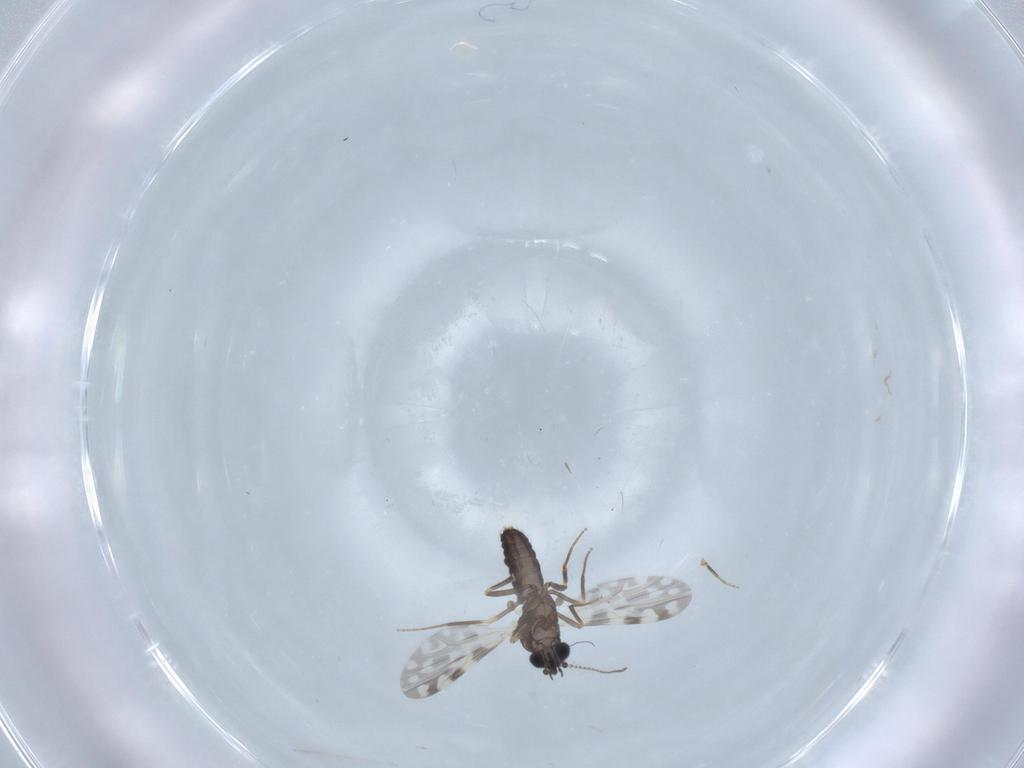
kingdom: Animalia
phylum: Arthropoda
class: Insecta
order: Diptera
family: Ceratopogonidae
